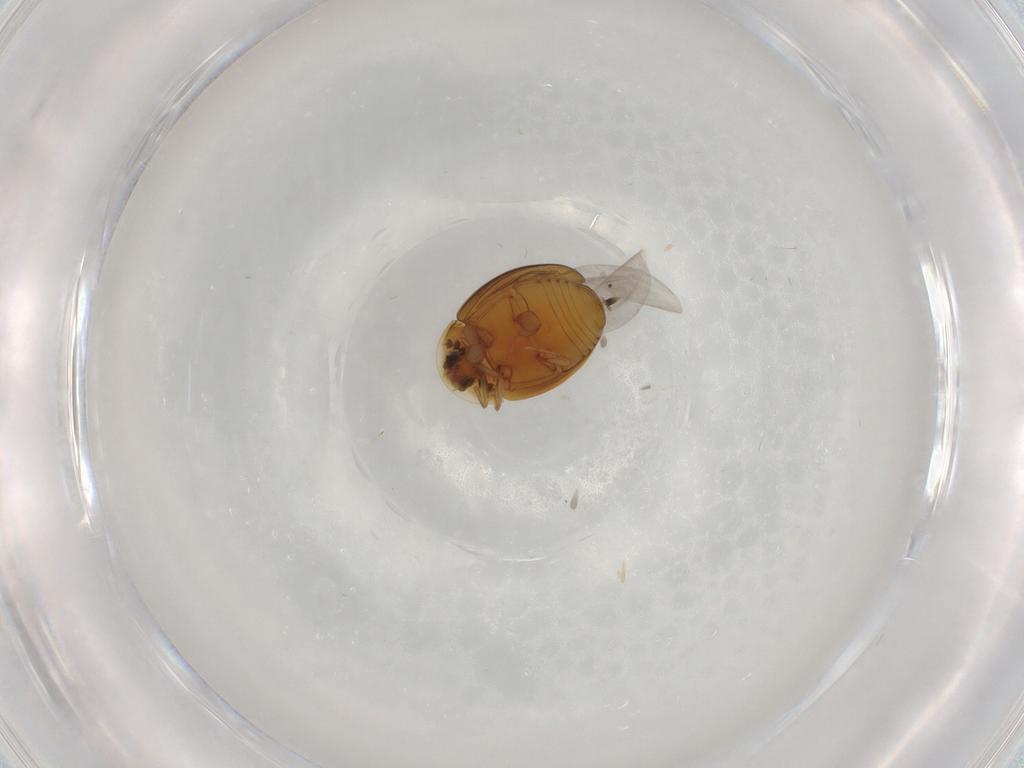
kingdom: Animalia
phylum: Arthropoda
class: Insecta
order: Coleoptera
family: Corylophidae
